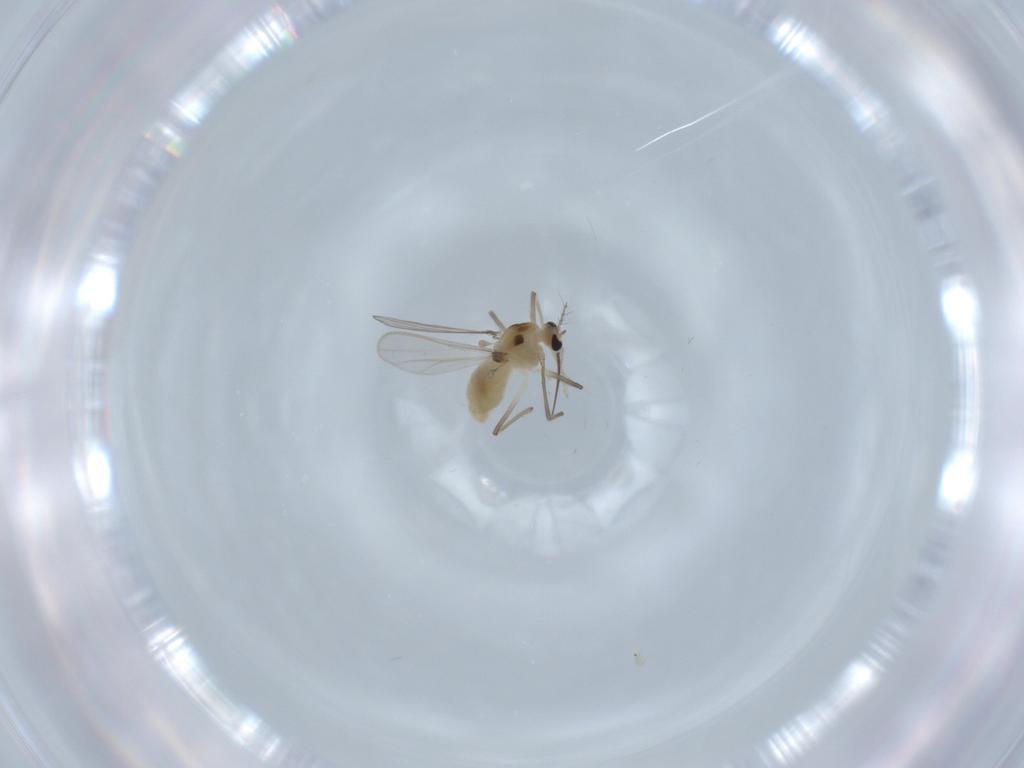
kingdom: Animalia
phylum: Arthropoda
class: Insecta
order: Diptera
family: Chironomidae
